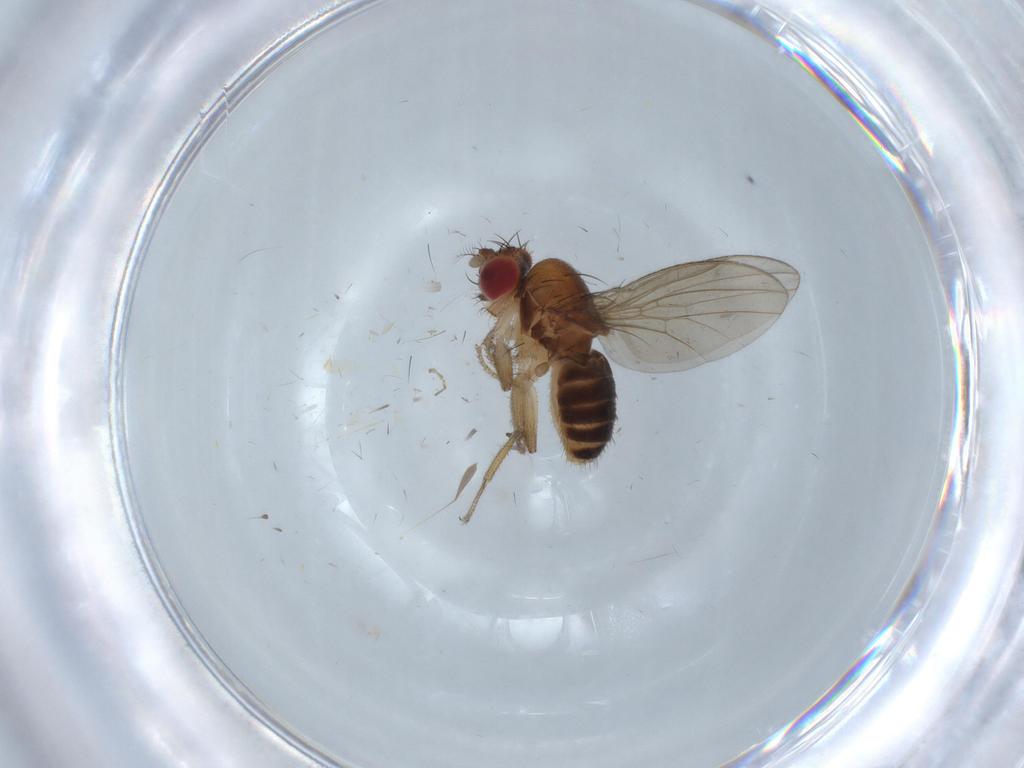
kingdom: Animalia
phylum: Arthropoda
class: Insecta
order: Diptera
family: Drosophilidae
